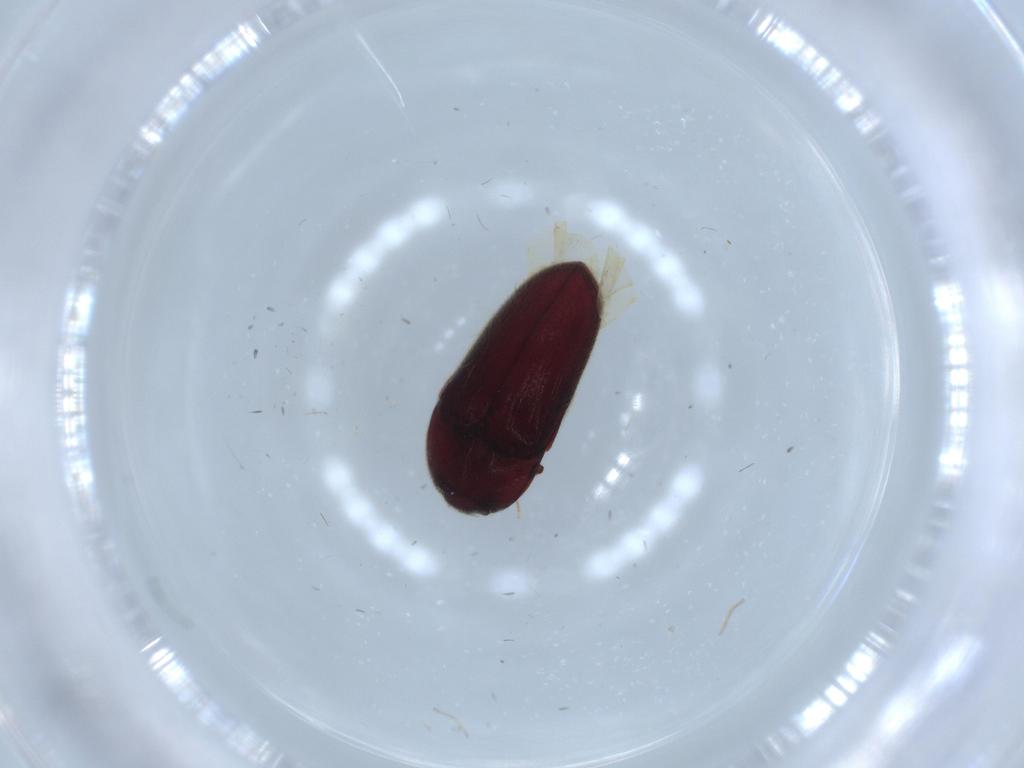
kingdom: Animalia
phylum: Arthropoda
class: Insecta
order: Coleoptera
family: Throscidae
